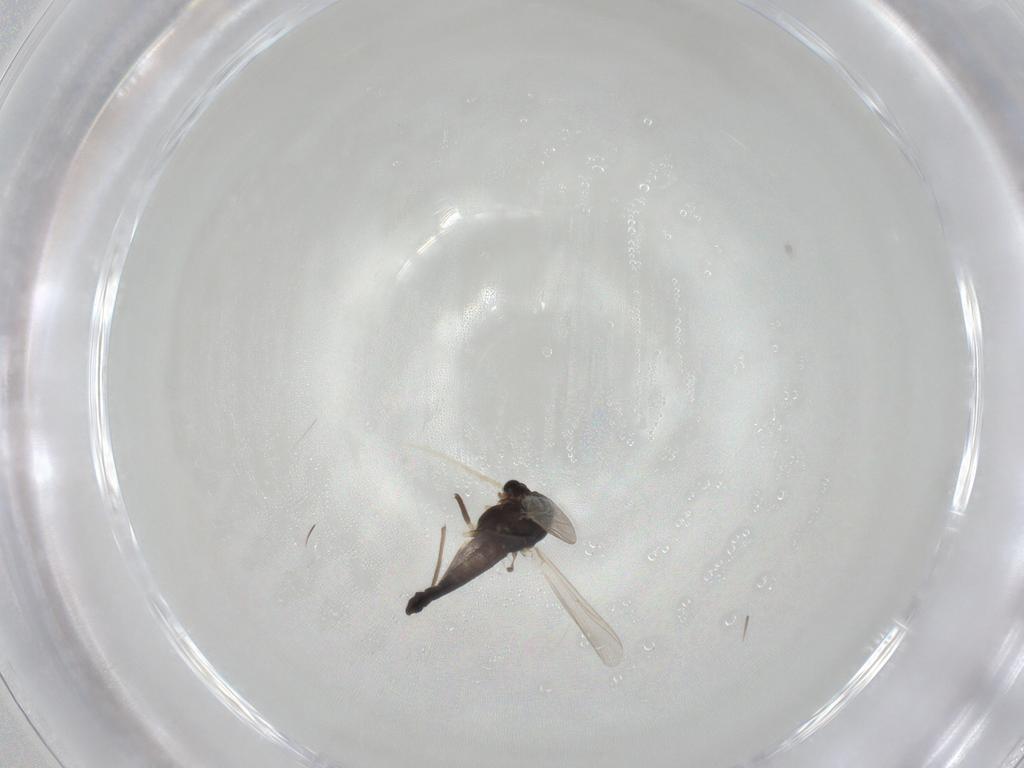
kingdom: Animalia
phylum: Arthropoda
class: Insecta
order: Diptera
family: Chironomidae
